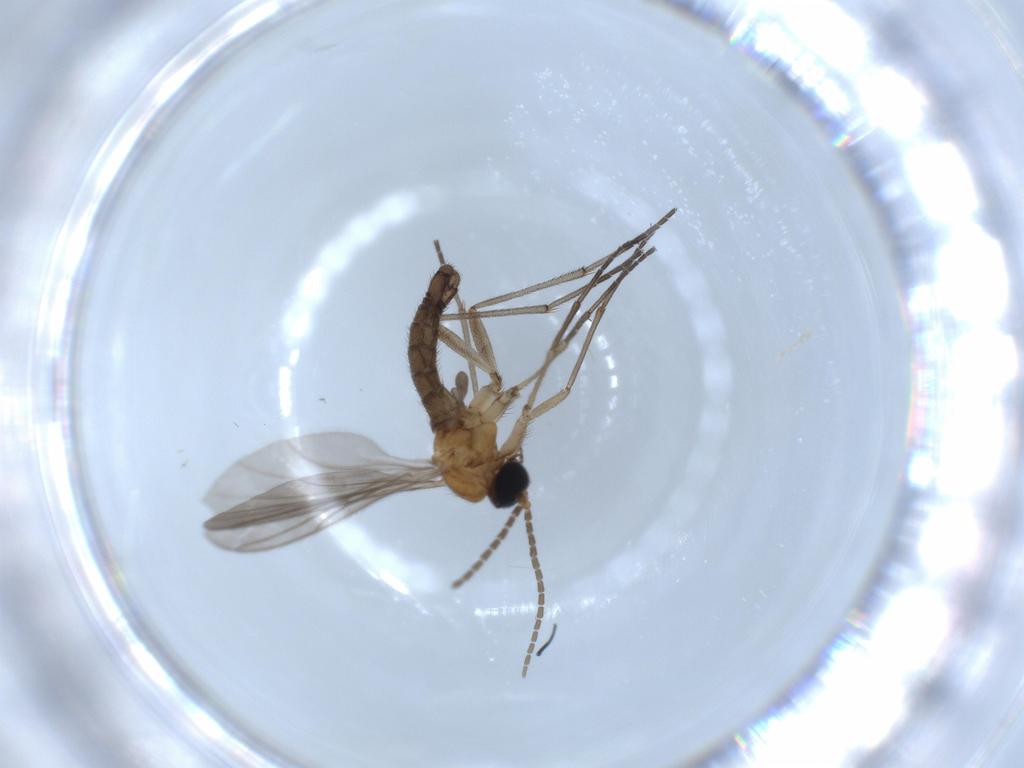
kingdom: Animalia
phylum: Arthropoda
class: Insecta
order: Diptera
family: Sciaridae
